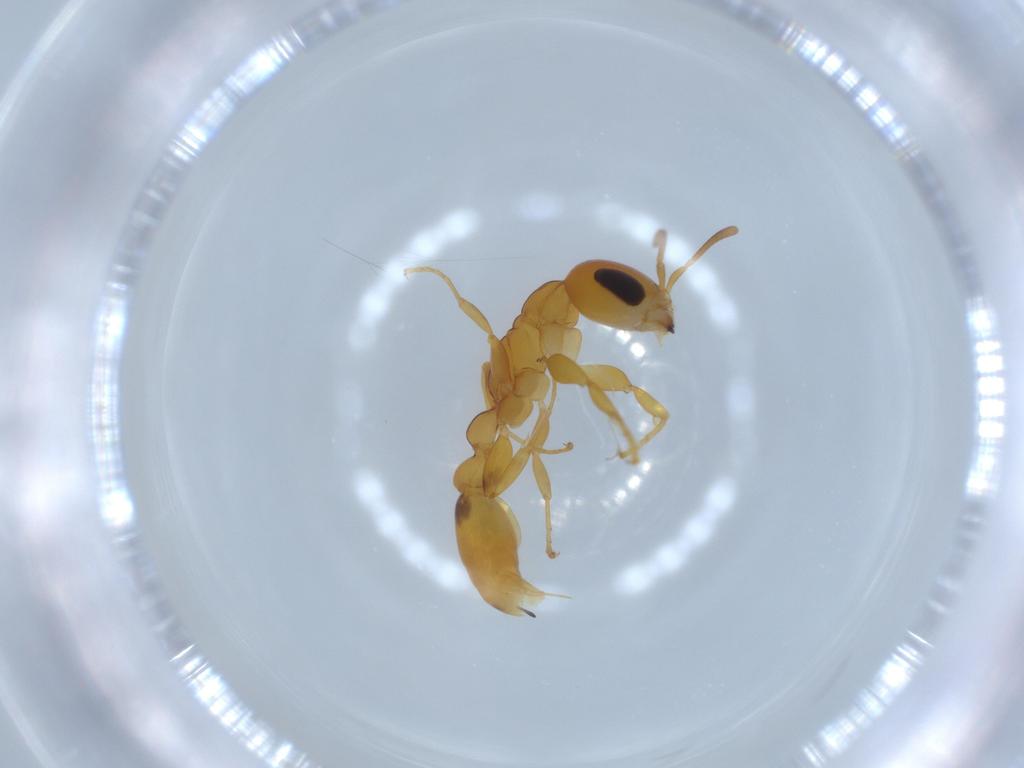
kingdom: Animalia
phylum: Arthropoda
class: Insecta
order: Hymenoptera
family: Formicidae
